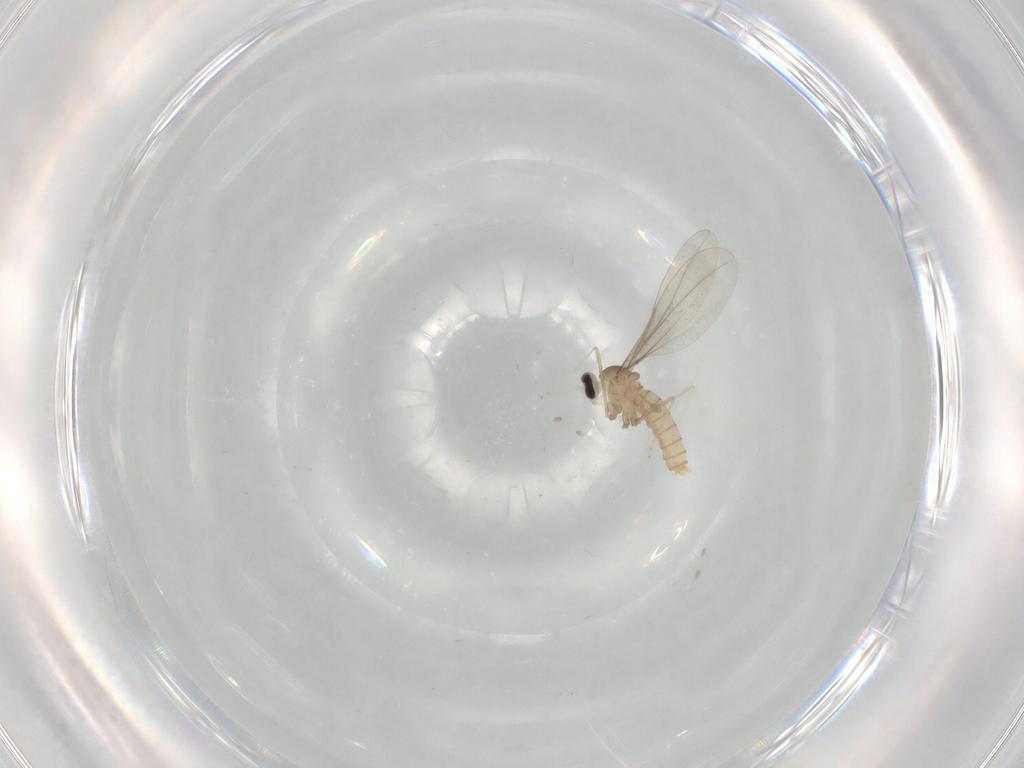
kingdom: Animalia
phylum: Arthropoda
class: Insecta
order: Diptera
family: Cecidomyiidae
